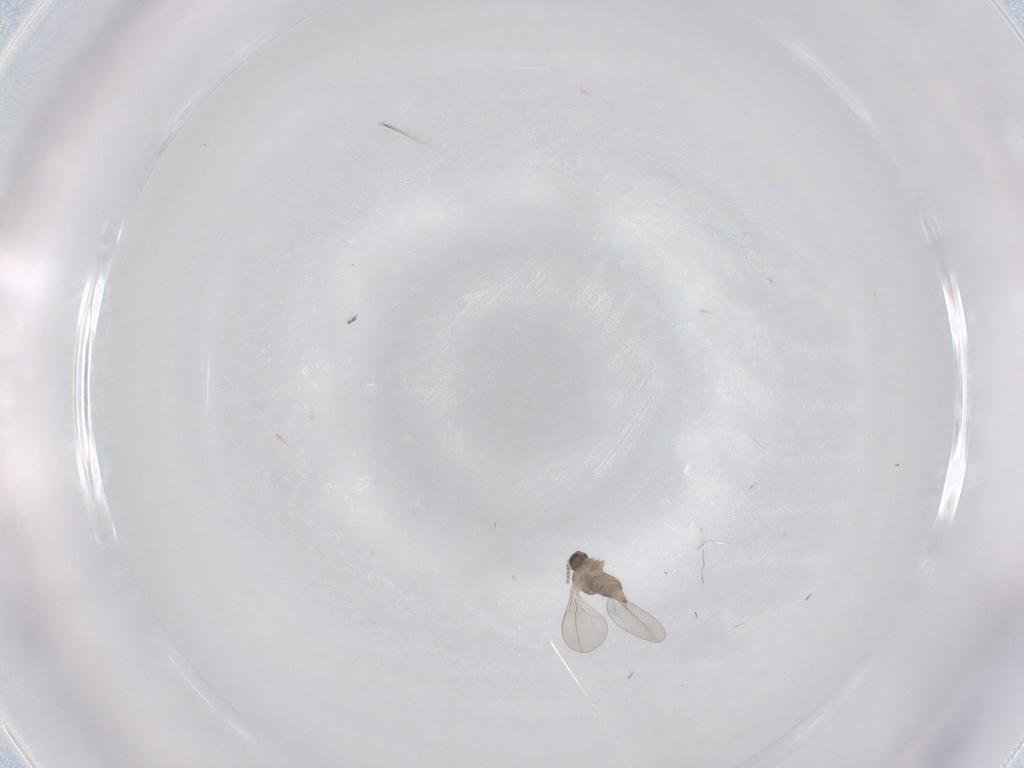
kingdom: Animalia
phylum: Arthropoda
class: Insecta
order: Diptera
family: Cecidomyiidae
